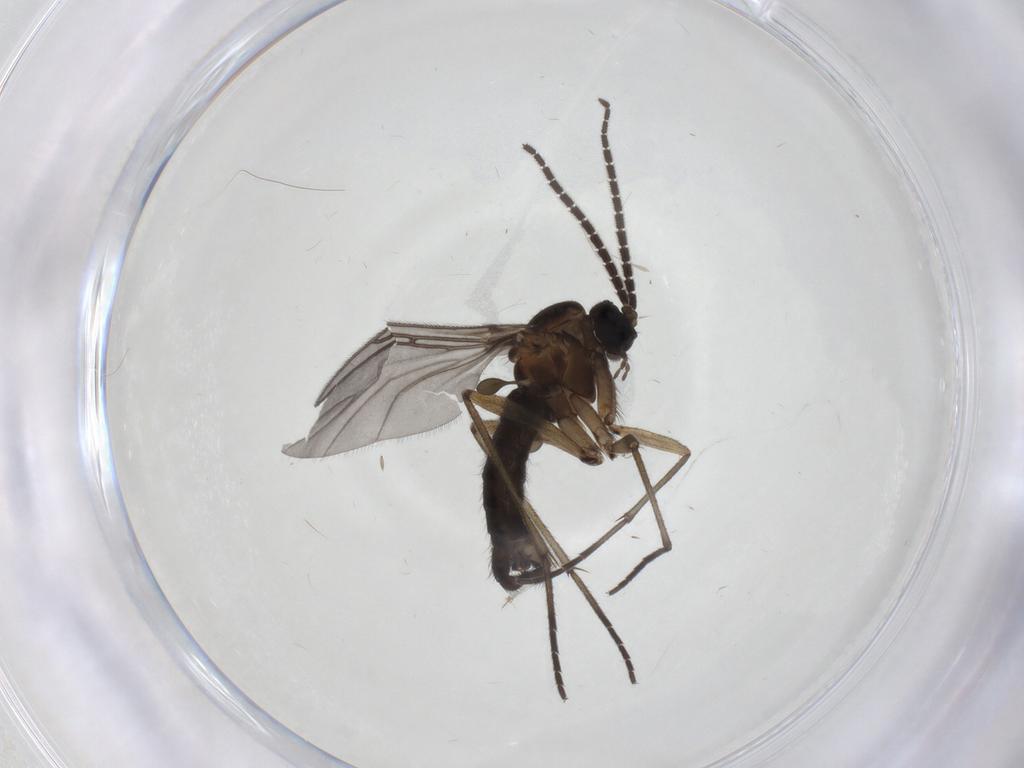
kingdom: Animalia
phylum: Arthropoda
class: Insecta
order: Diptera
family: Sciaridae
